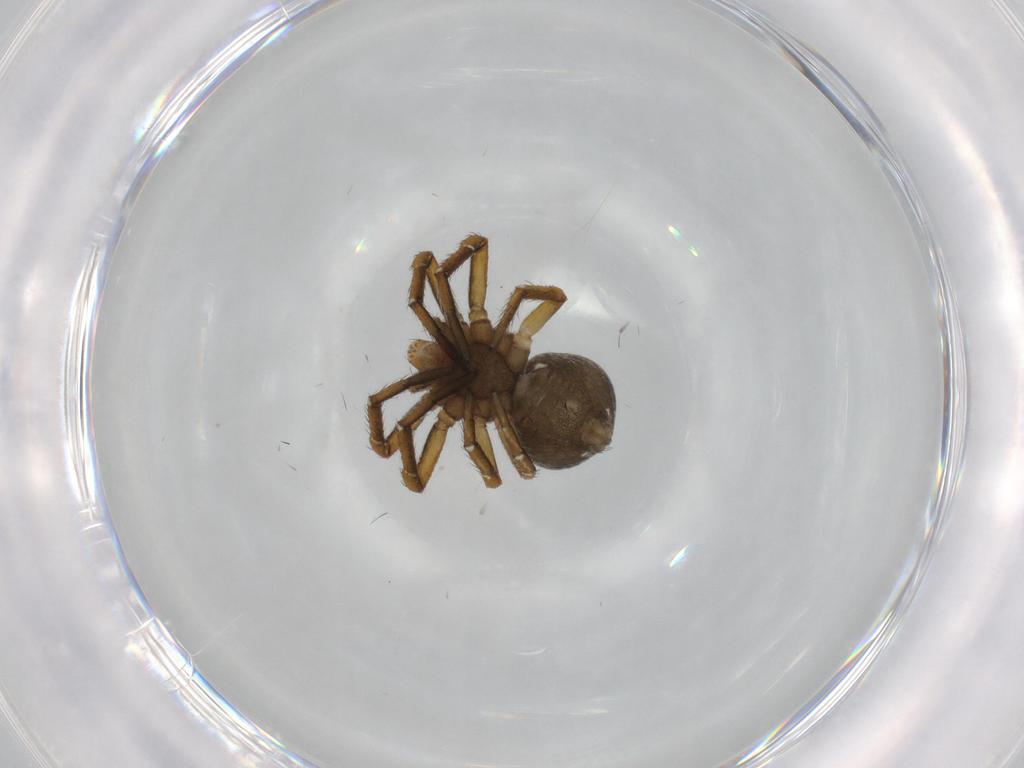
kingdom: Animalia
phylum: Arthropoda
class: Arachnida
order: Araneae
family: Thomisidae
